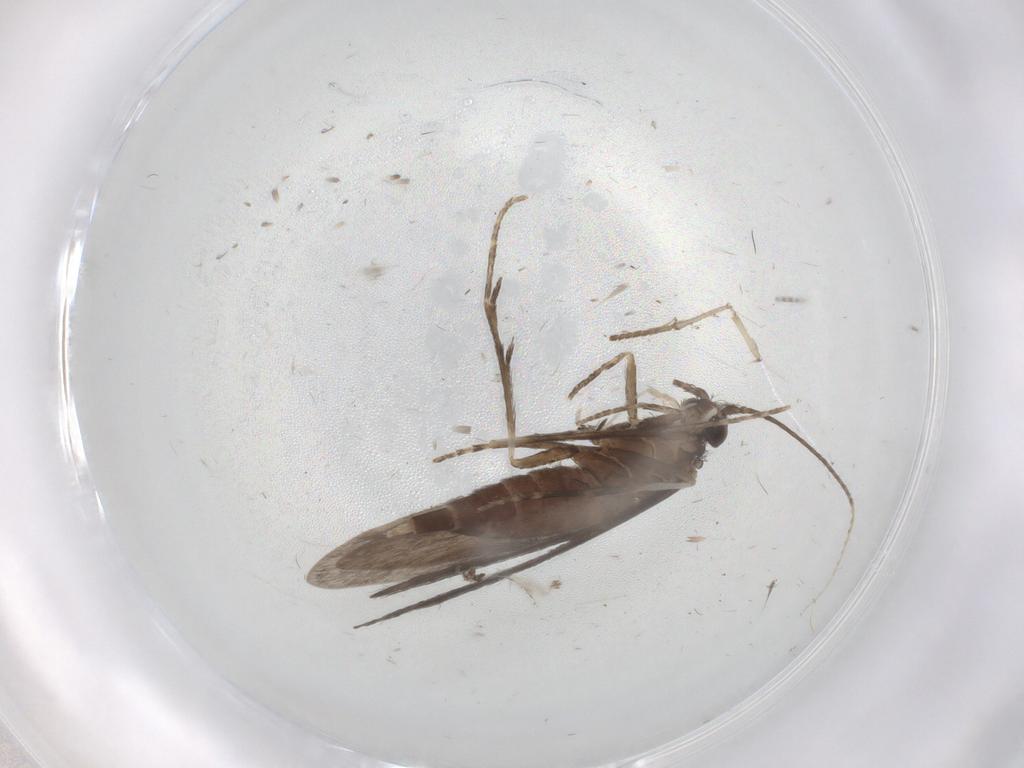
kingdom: Animalia
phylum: Arthropoda
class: Insecta
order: Trichoptera
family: Xiphocentronidae
